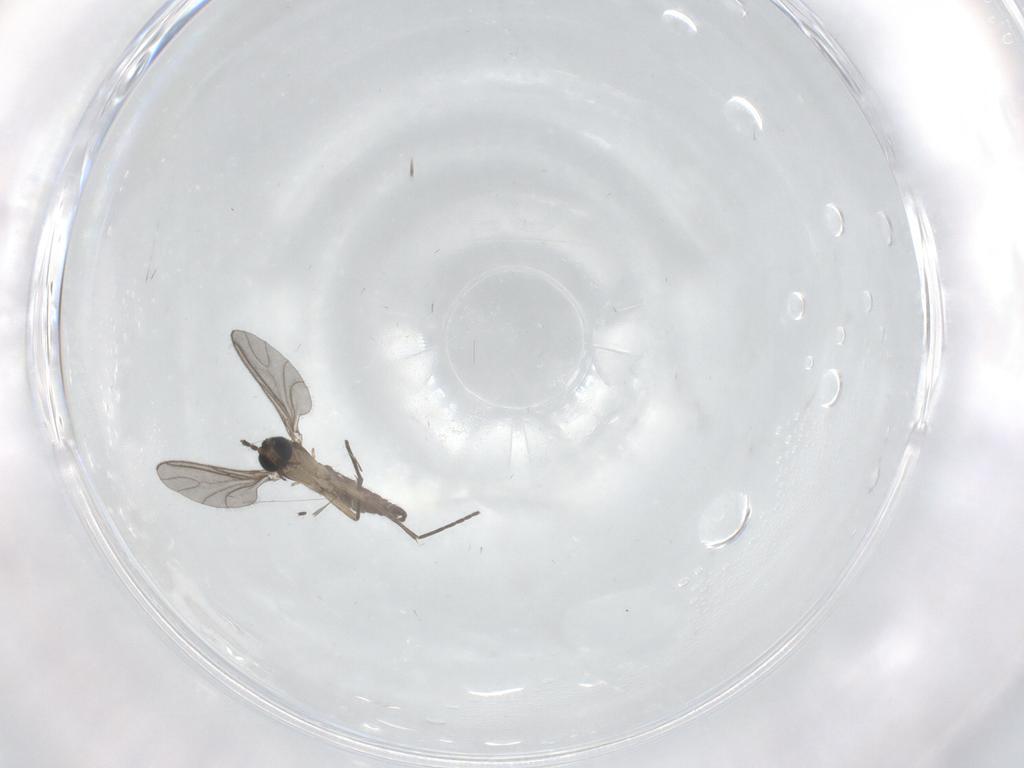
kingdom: Animalia
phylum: Arthropoda
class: Insecta
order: Diptera
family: Sciaridae
